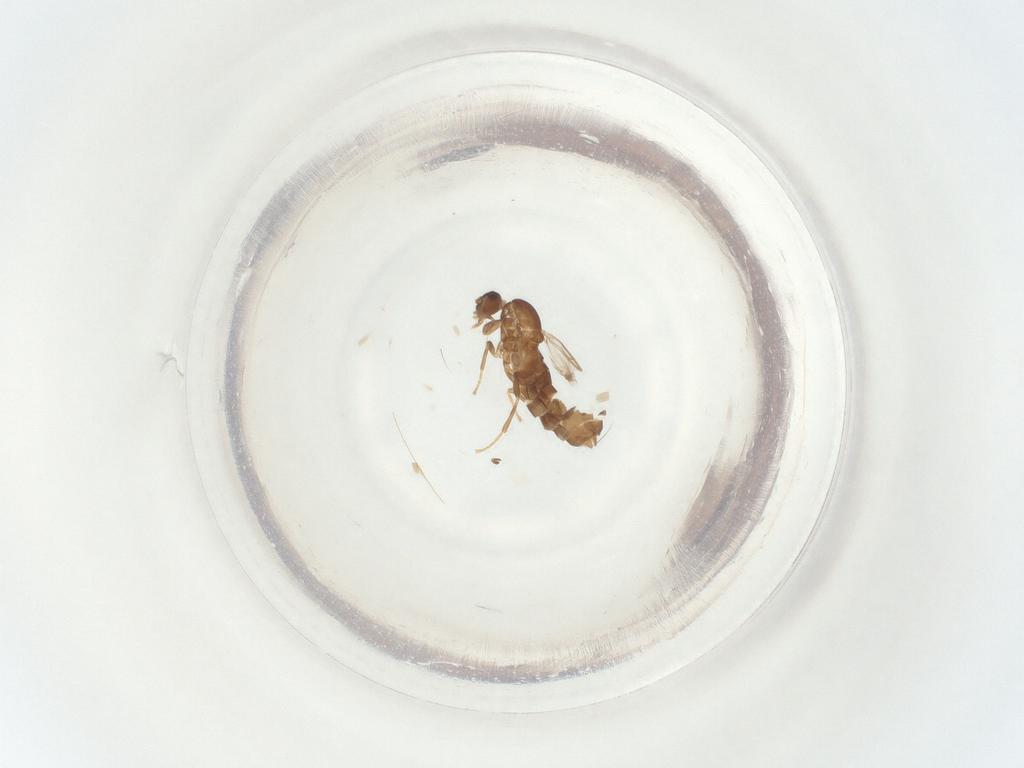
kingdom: Animalia
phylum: Arthropoda
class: Insecta
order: Diptera
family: Scatopsidae
